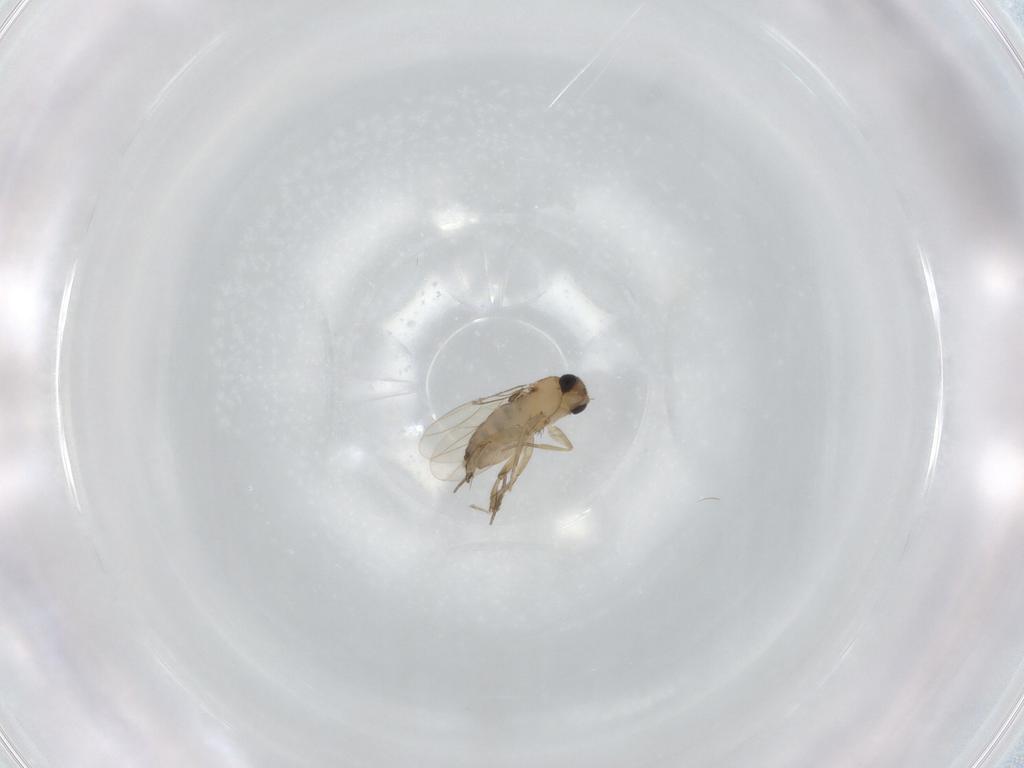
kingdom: Animalia
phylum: Arthropoda
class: Insecta
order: Diptera
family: Phoridae
